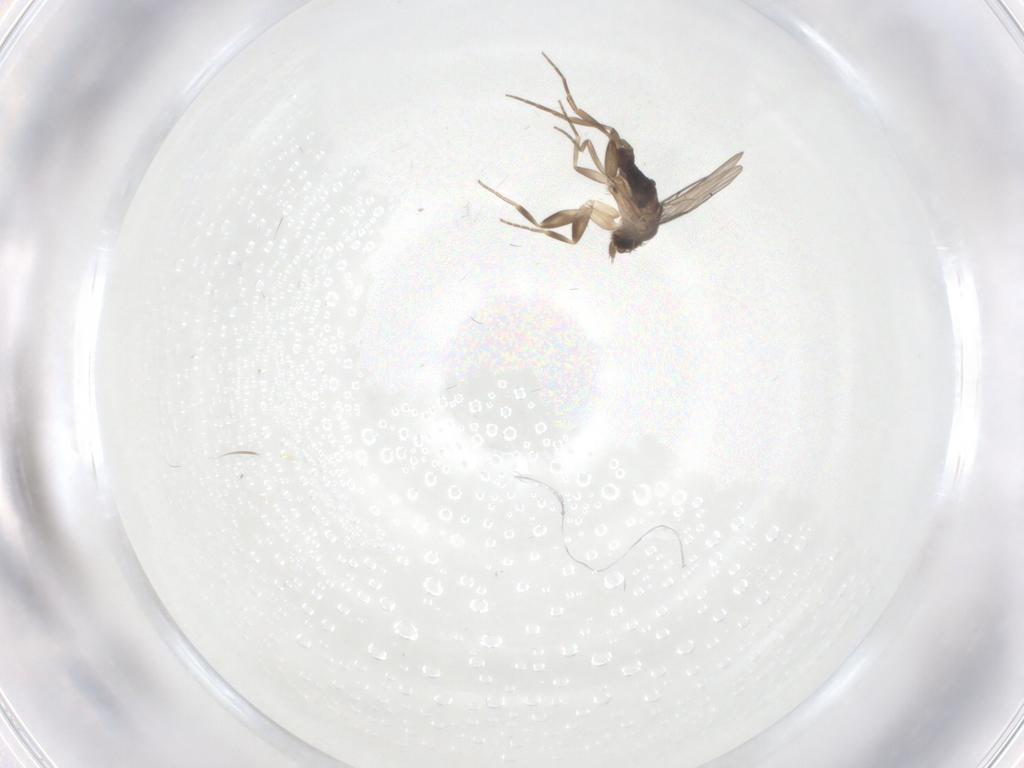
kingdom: Animalia
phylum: Arthropoda
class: Insecta
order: Diptera
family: Phoridae
